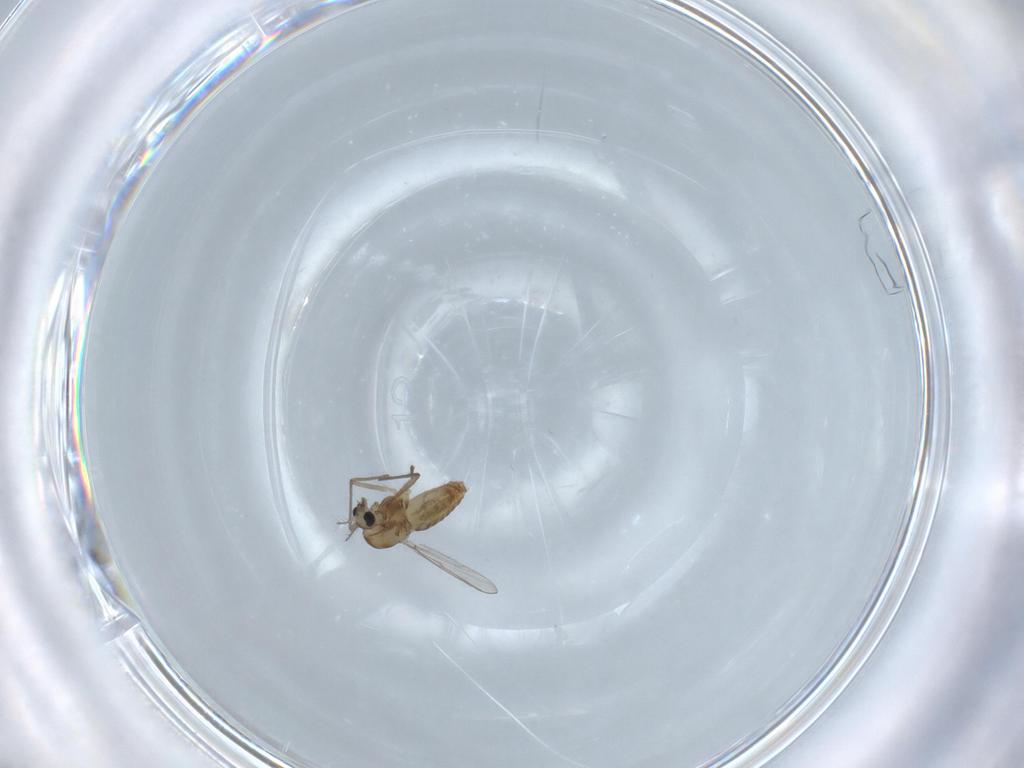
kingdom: Animalia
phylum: Arthropoda
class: Insecta
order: Diptera
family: Chironomidae
